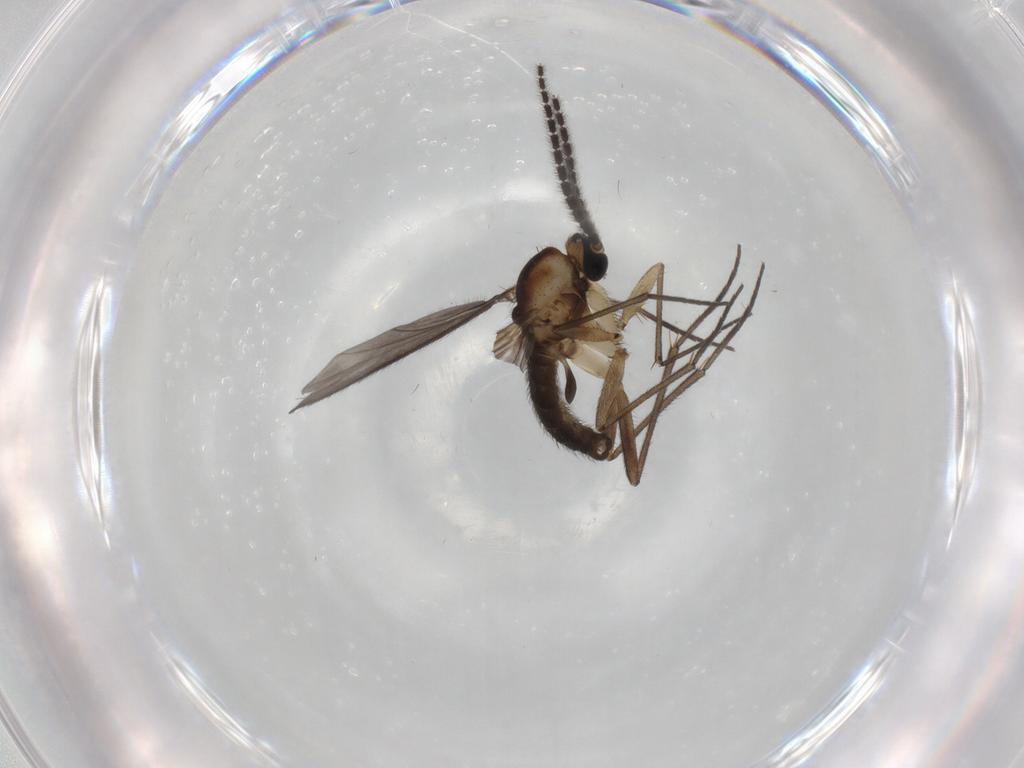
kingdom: Animalia
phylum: Arthropoda
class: Insecta
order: Diptera
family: Sciaridae
